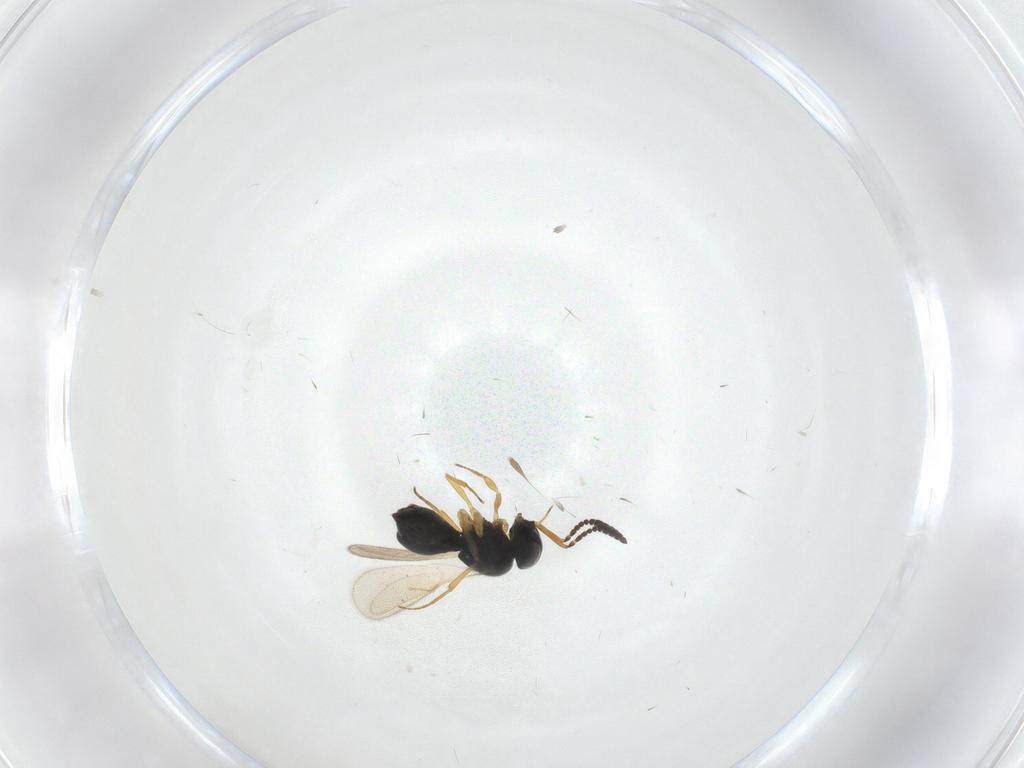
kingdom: Animalia
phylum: Arthropoda
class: Insecta
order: Hymenoptera
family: Scelionidae
